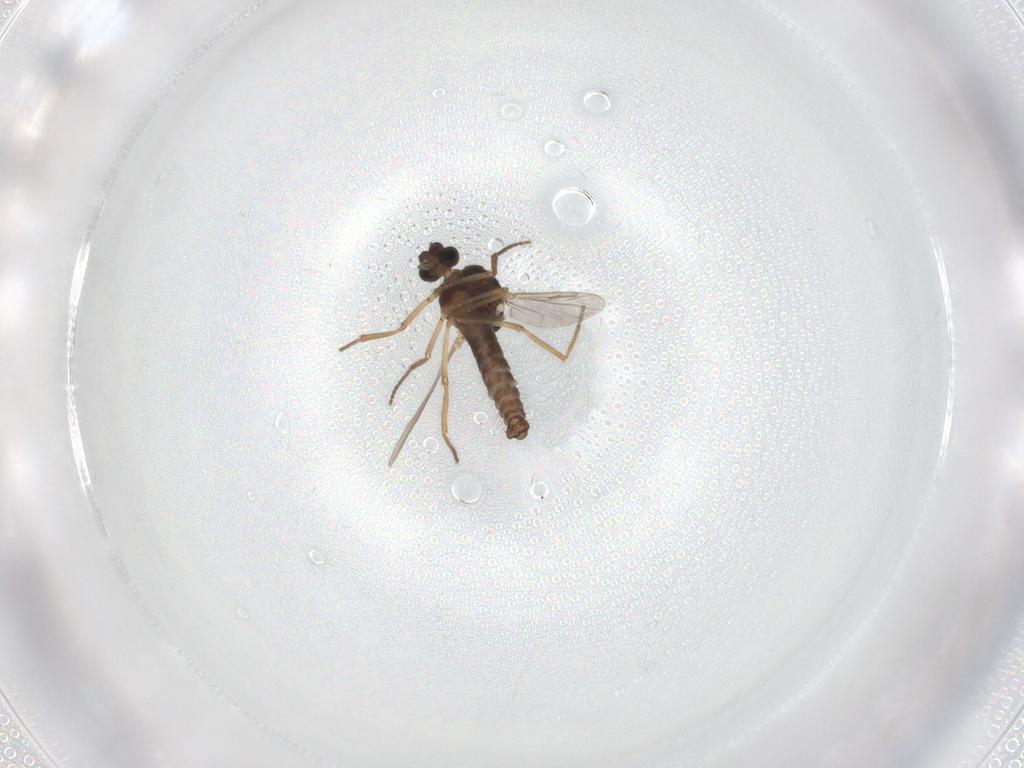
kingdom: Animalia
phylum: Arthropoda
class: Insecta
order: Diptera
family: Ceratopogonidae
